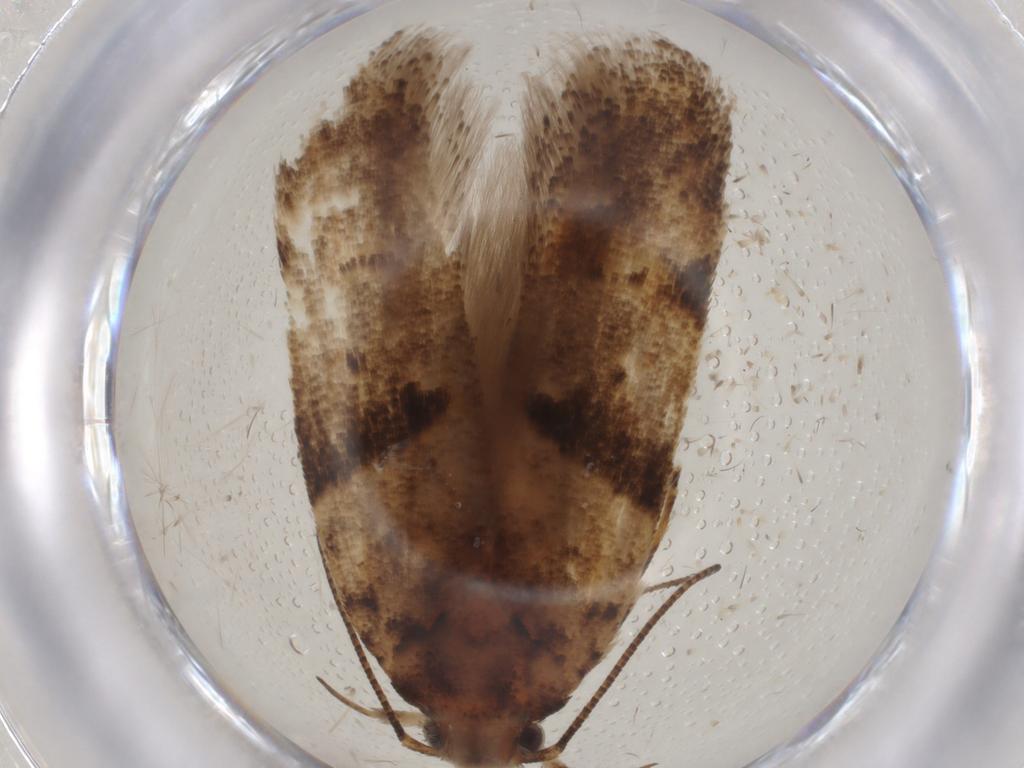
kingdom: Animalia
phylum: Arthropoda
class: Insecta
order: Lepidoptera
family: Gelechiidae
